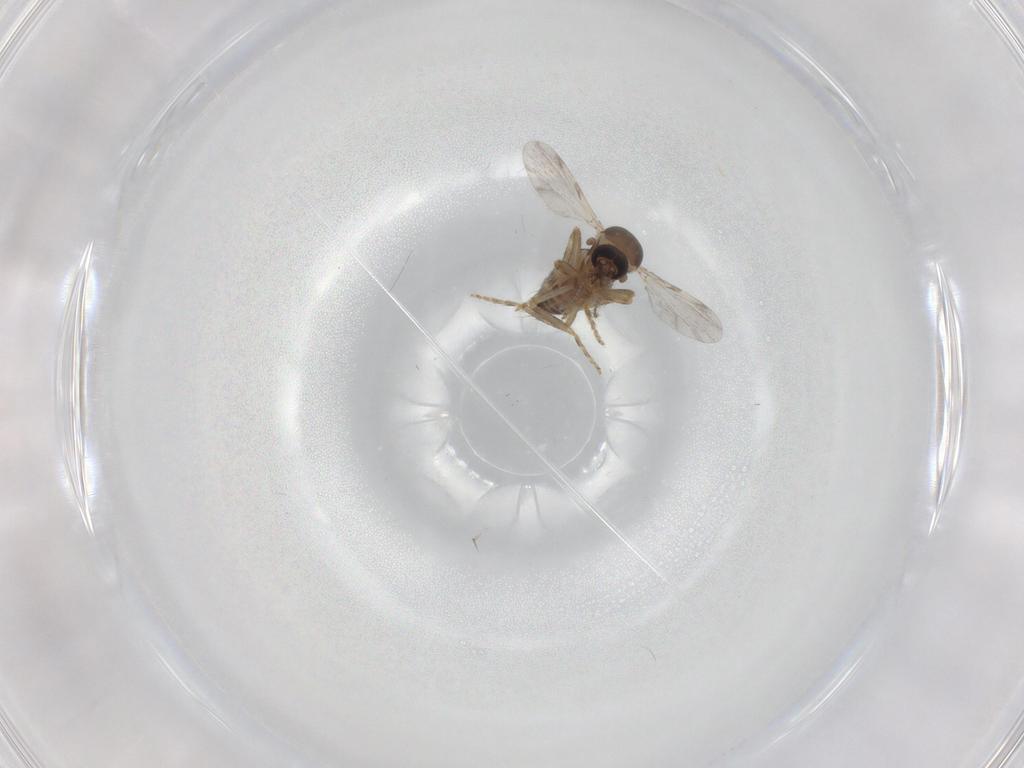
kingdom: Animalia
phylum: Arthropoda
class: Insecta
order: Diptera
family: Ceratopogonidae
